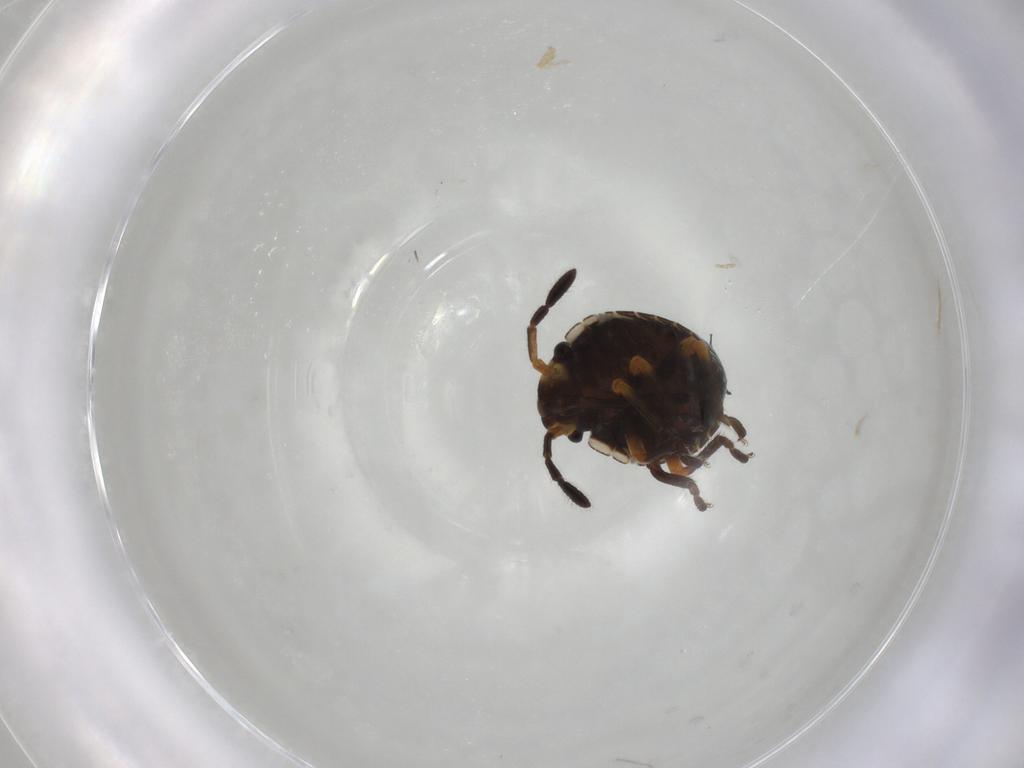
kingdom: Animalia
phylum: Arthropoda
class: Insecta
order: Hemiptera
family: Pentatomidae
